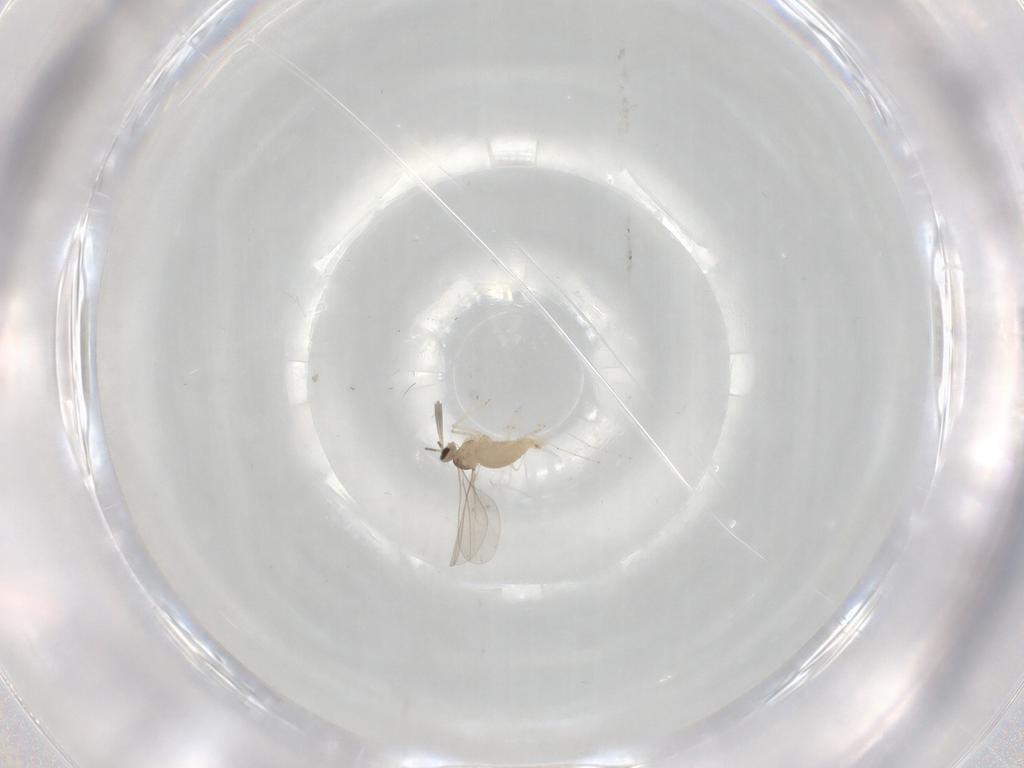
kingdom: Animalia
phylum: Arthropoda
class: Insecta
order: Diptera
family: Cecidomyiidae
